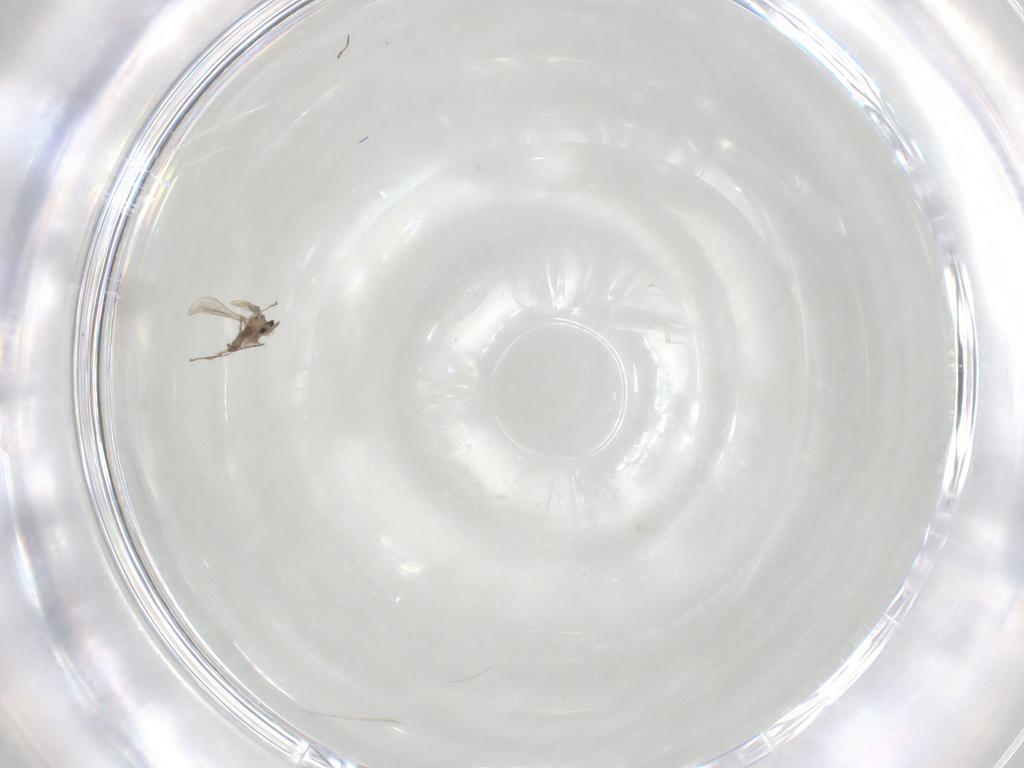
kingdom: Animalia
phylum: Arthropoda
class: Insecta
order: Diptera
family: Cecidomyiidae
